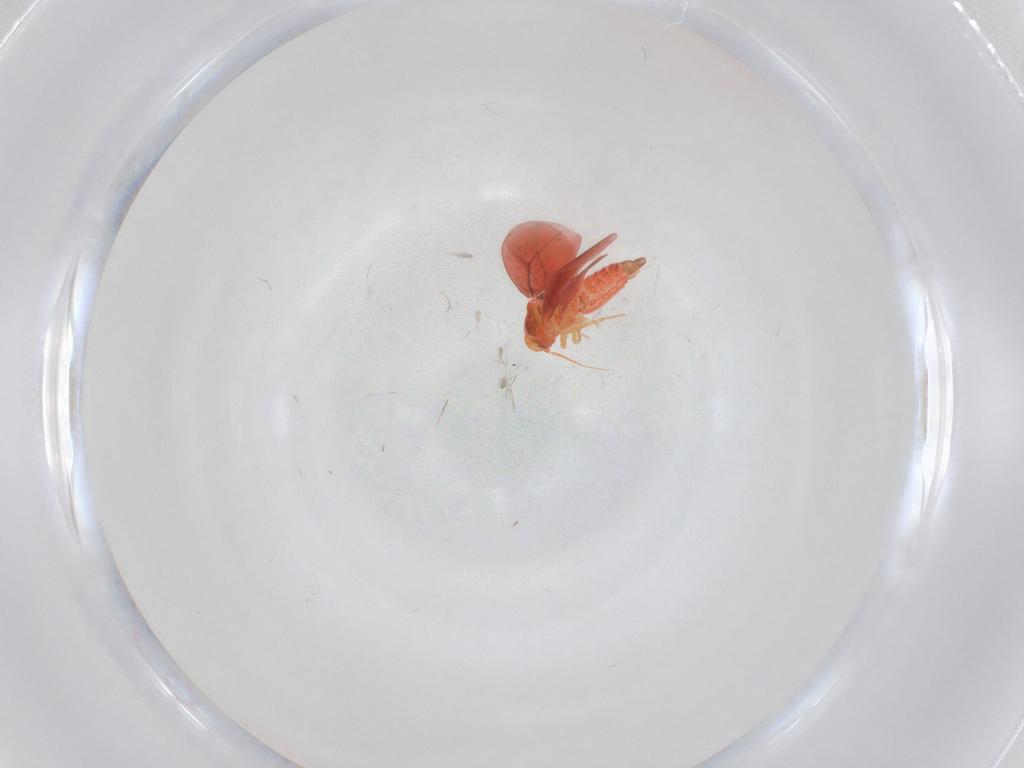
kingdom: Animalia
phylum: Arthropoda
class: Insecta
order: Hemiptera
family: Aleyrodidae
